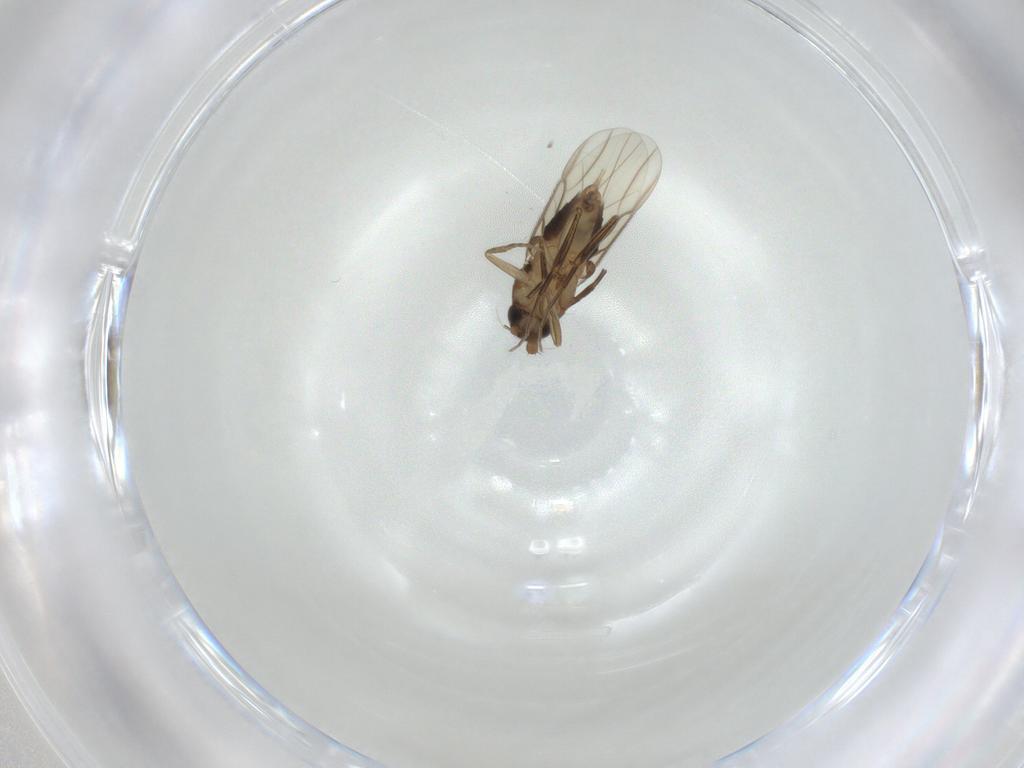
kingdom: Animalia
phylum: Arthropoda
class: Insecta
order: Diptera
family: Phoridae
